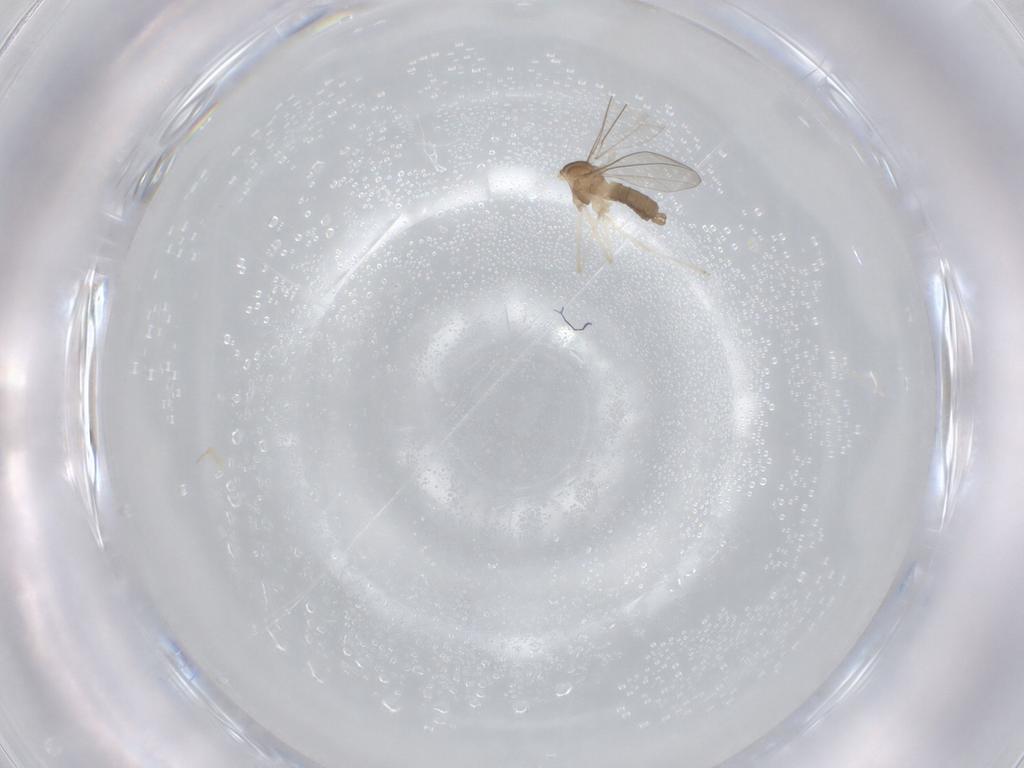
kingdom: Animalia
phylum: Arthropoda
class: Insecta
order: Diptera
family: Cecidomyiidae
